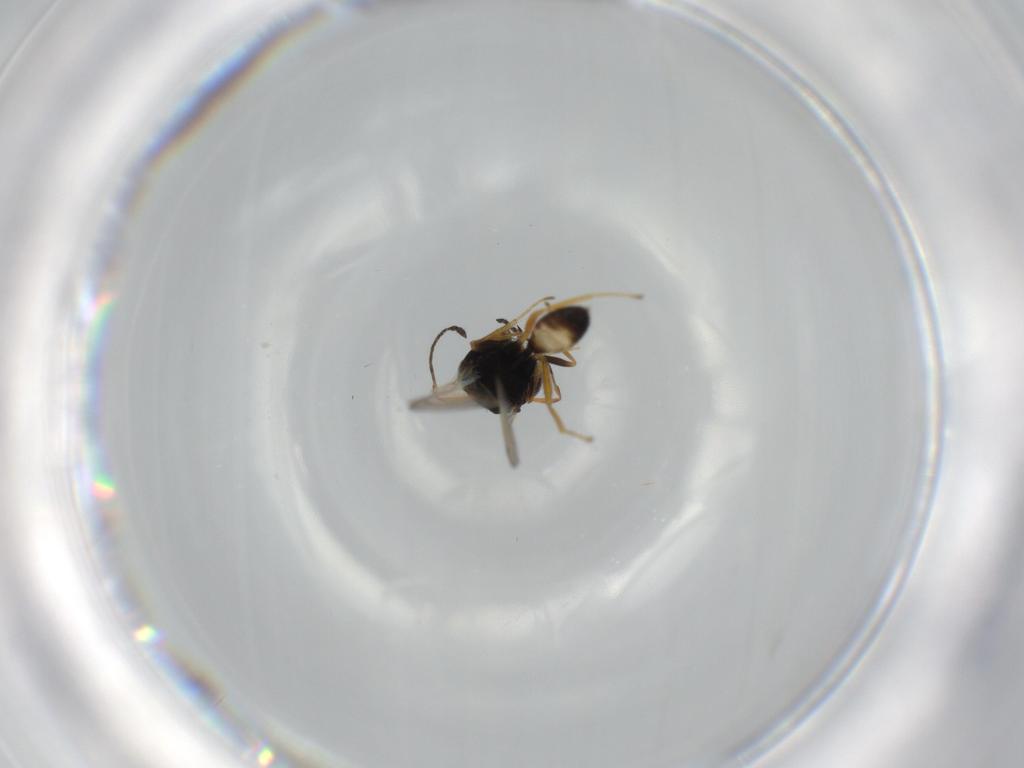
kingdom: Animalia
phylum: Arthropoda
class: Insecta
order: Hymenoptera
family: Pteromalidae
